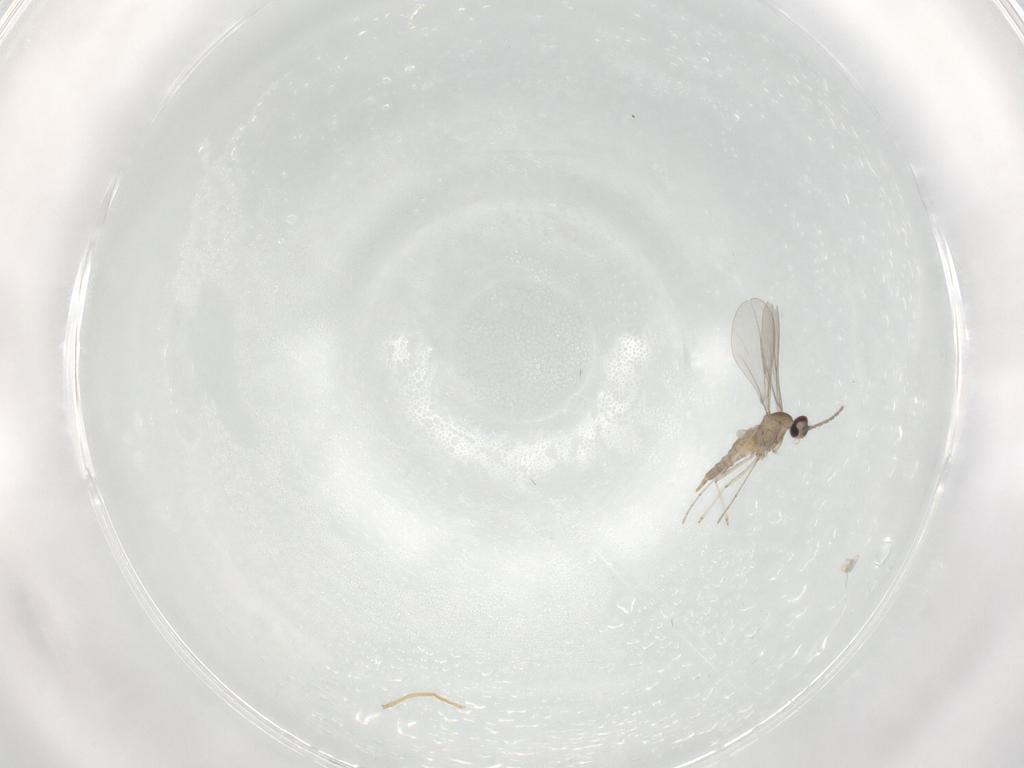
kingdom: Animalia
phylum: Arthropoda
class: Insecta
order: Diptera
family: Cecidomyiidae
